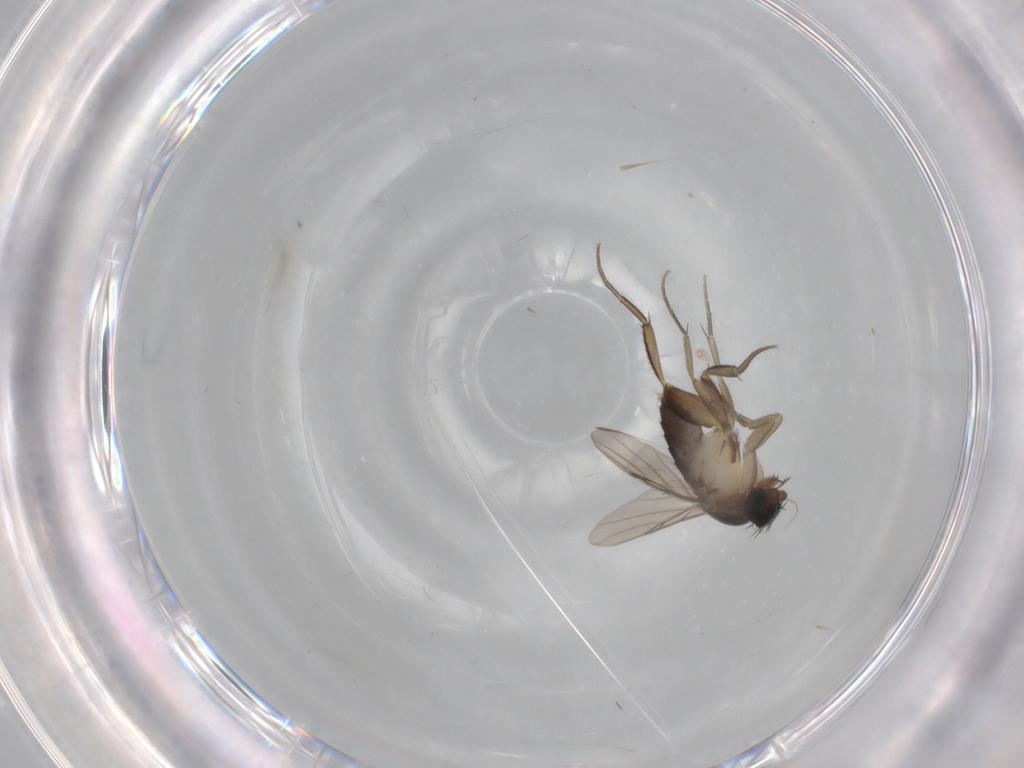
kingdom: Animalia
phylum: Arthropoda
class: Insecta
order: Diptera
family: Phoridae
